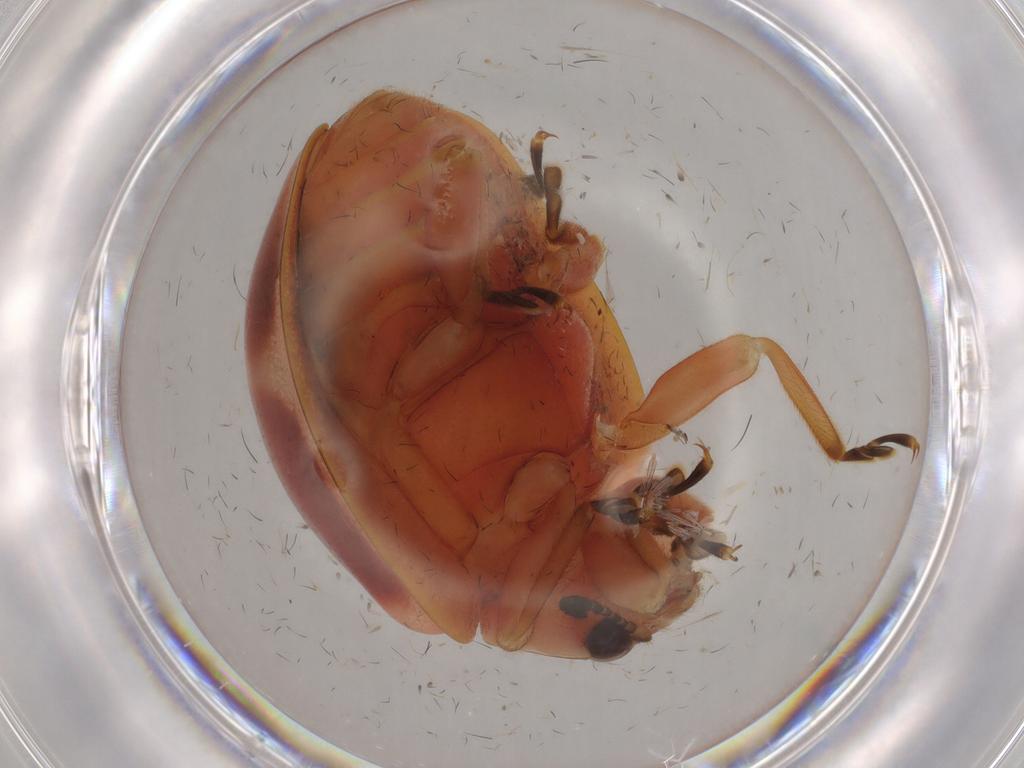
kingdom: Animalia
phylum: Arthropoda
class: Insecta
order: Coleoptera
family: Coccinellidae
